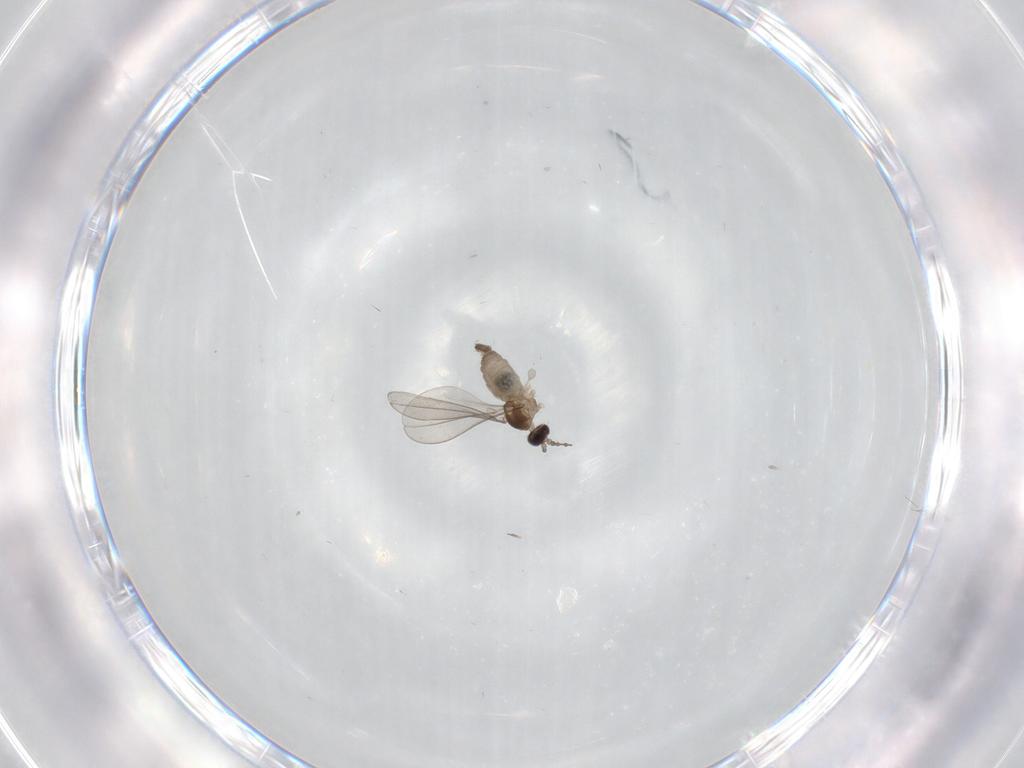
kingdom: Animalia
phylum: Arthropoda
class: Insecta
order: Diptera
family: Cecidomyiidae
